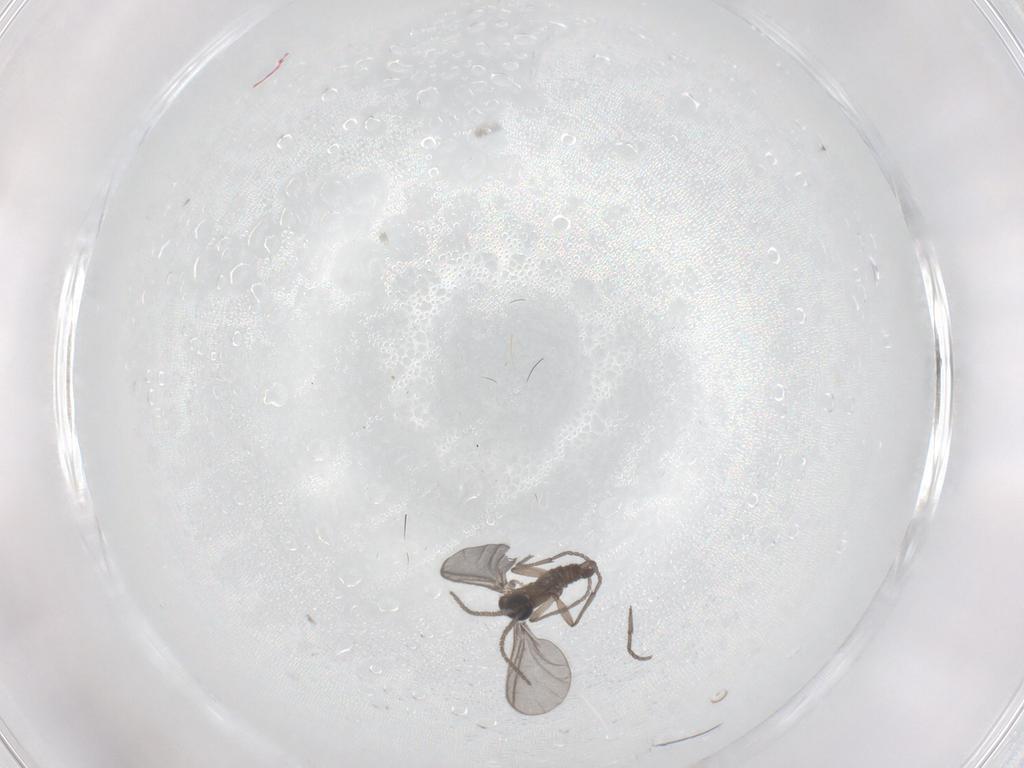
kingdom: Animalia
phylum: Arthropoda
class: Insecta
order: Diptera
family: Sciaridae
